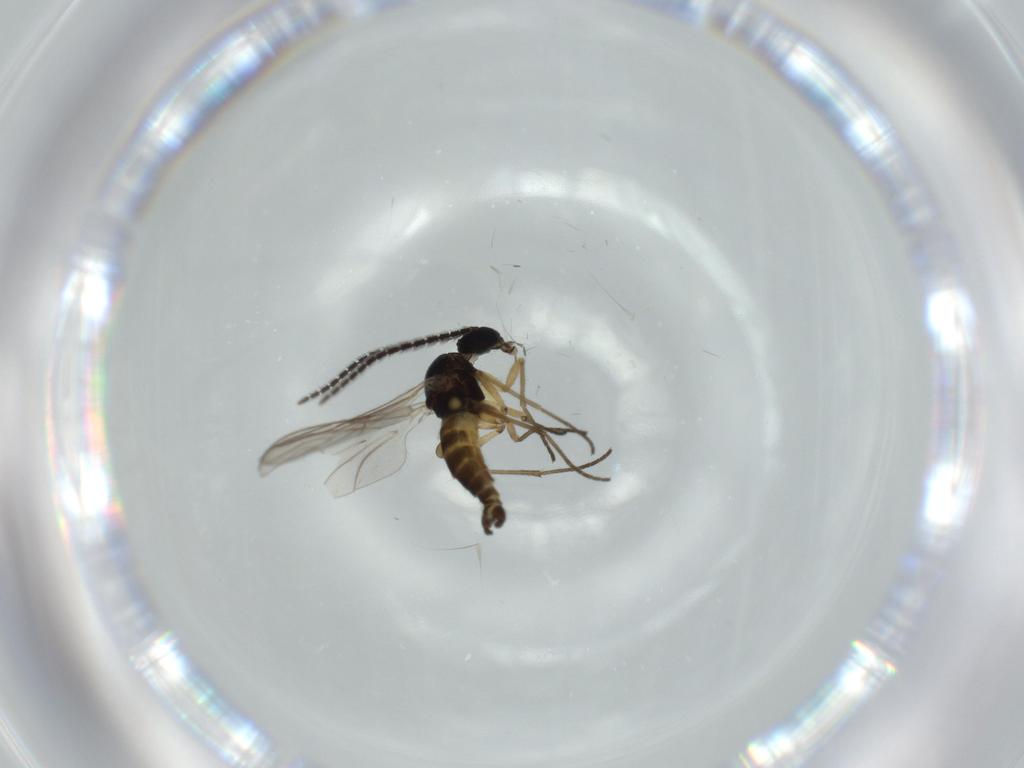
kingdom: Animalia
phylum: Arthropoda
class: Insecta
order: Diptera
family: Sciaridae
